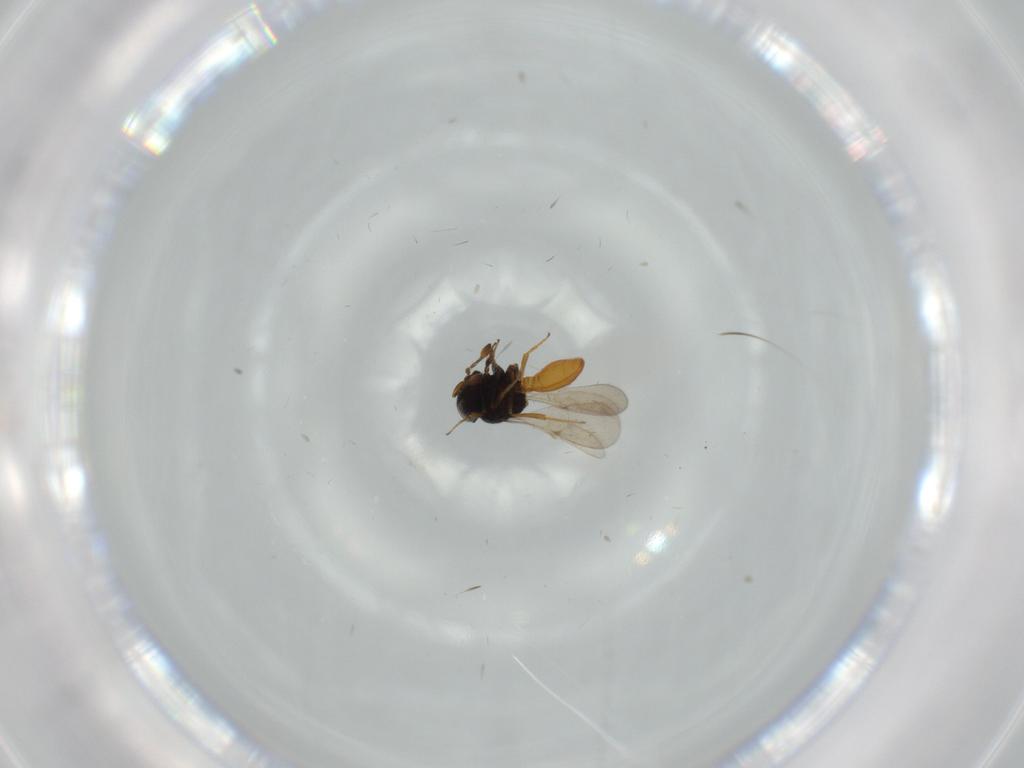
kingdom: Animalia
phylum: Arthropoda
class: Insecta
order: Hymenoptera
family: Scelionidae
